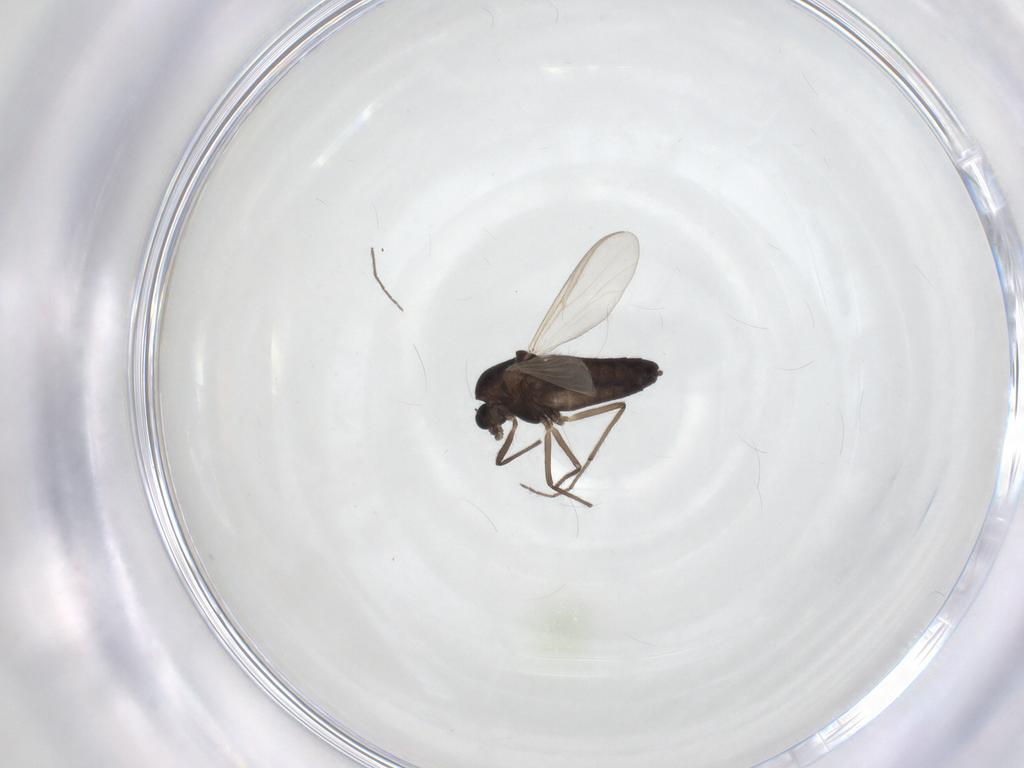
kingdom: Animalia
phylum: Arthropoda
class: Insecta
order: Diptera
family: Chironomidae
